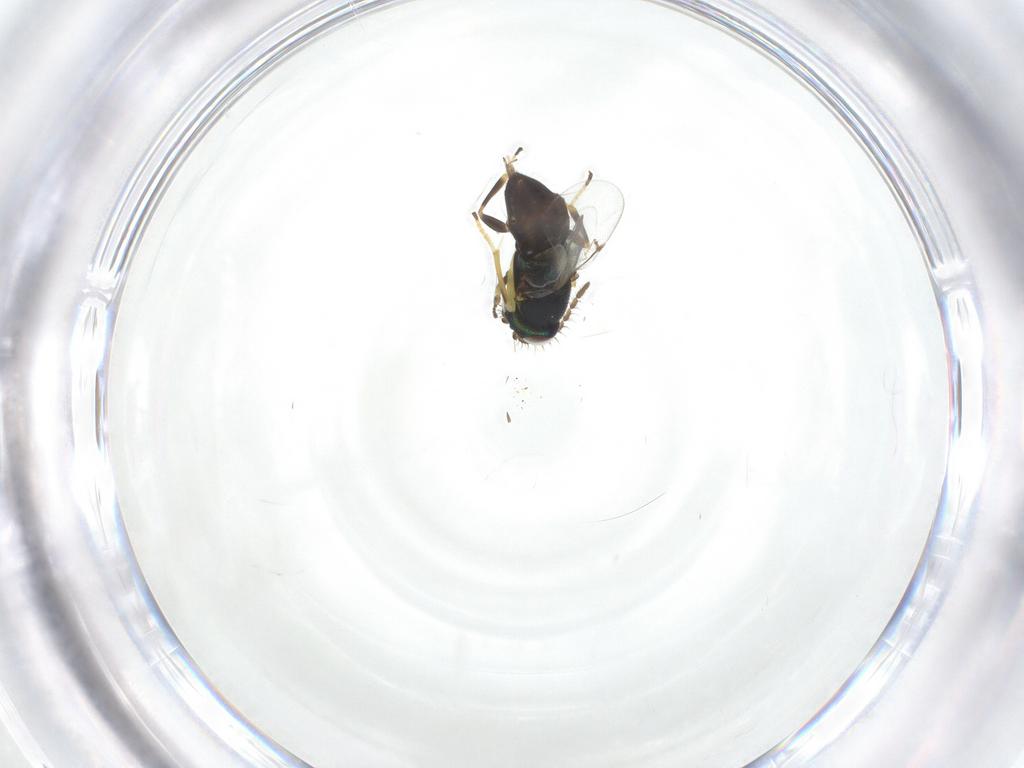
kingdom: Animalia
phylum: Arthropoda
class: Insecta
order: Hymenoptera
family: Encyrtidae
